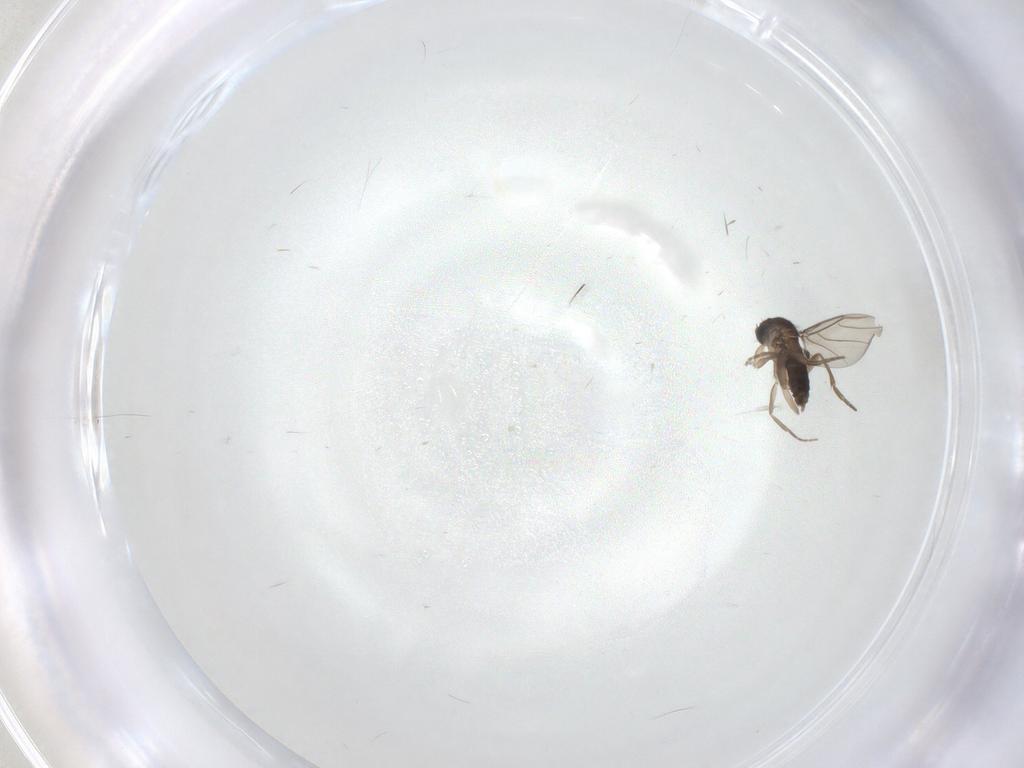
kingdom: Animalia
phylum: Arthropoda
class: Insecta
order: Diptera
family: Phoridae
